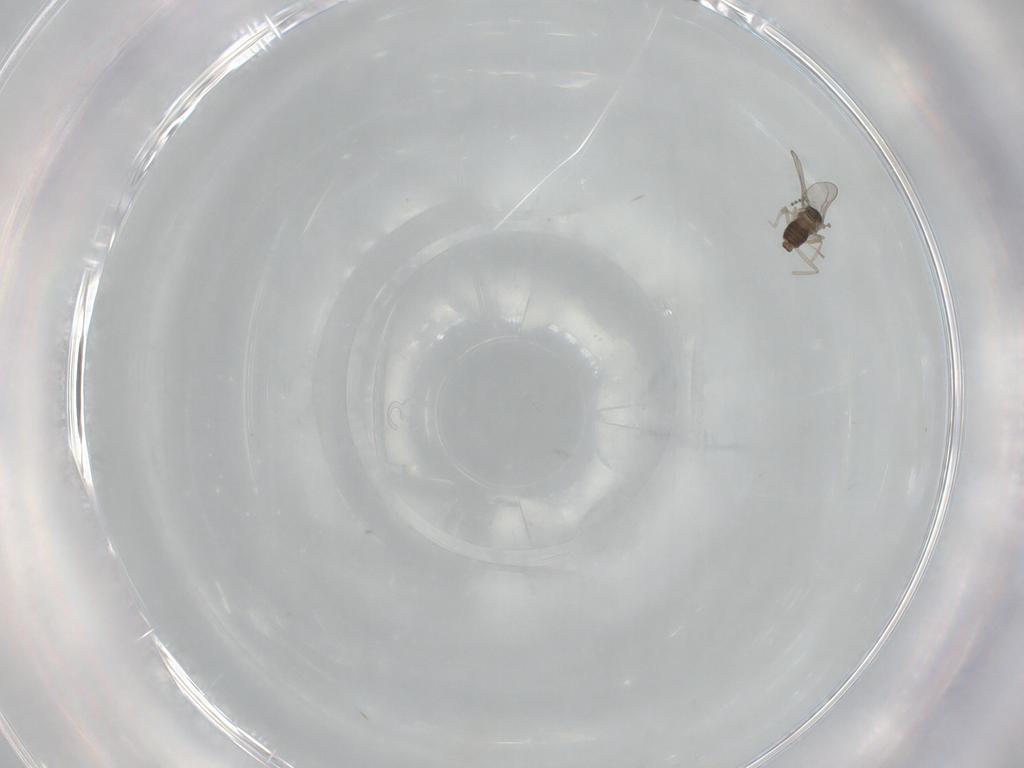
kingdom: Animalia
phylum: Arthropoda
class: Insecta
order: Diptera
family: Cecidomyiidae
